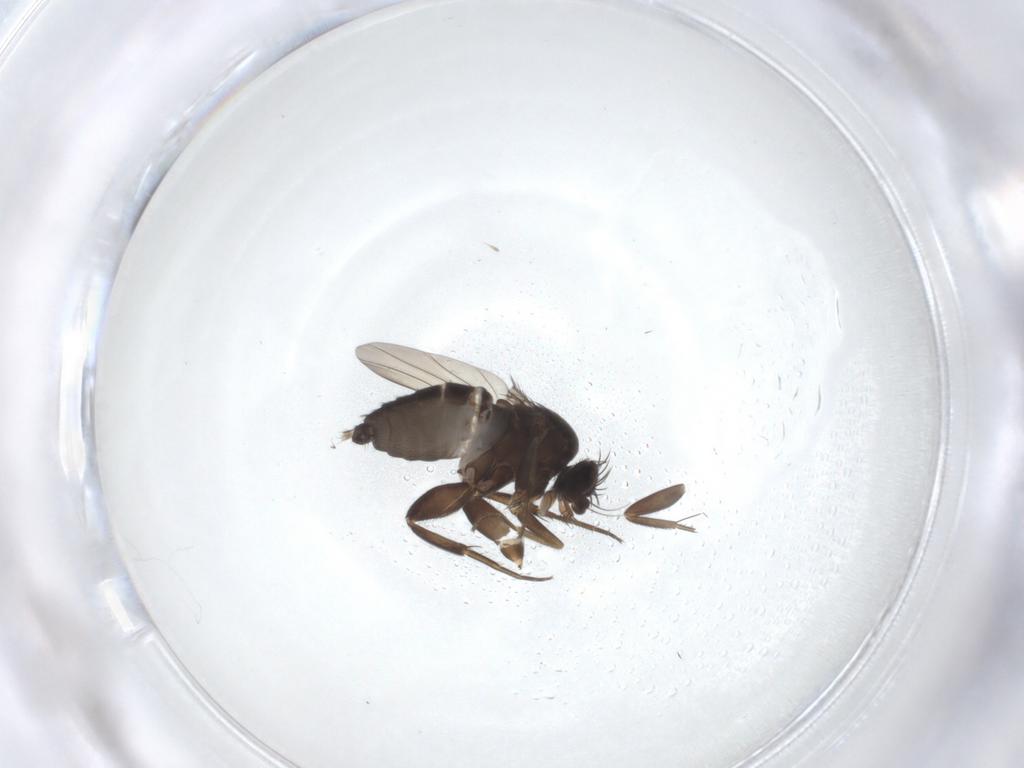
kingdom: Animalia
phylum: Arthropoda
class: Insecta
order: Diptera
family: Phoridae
